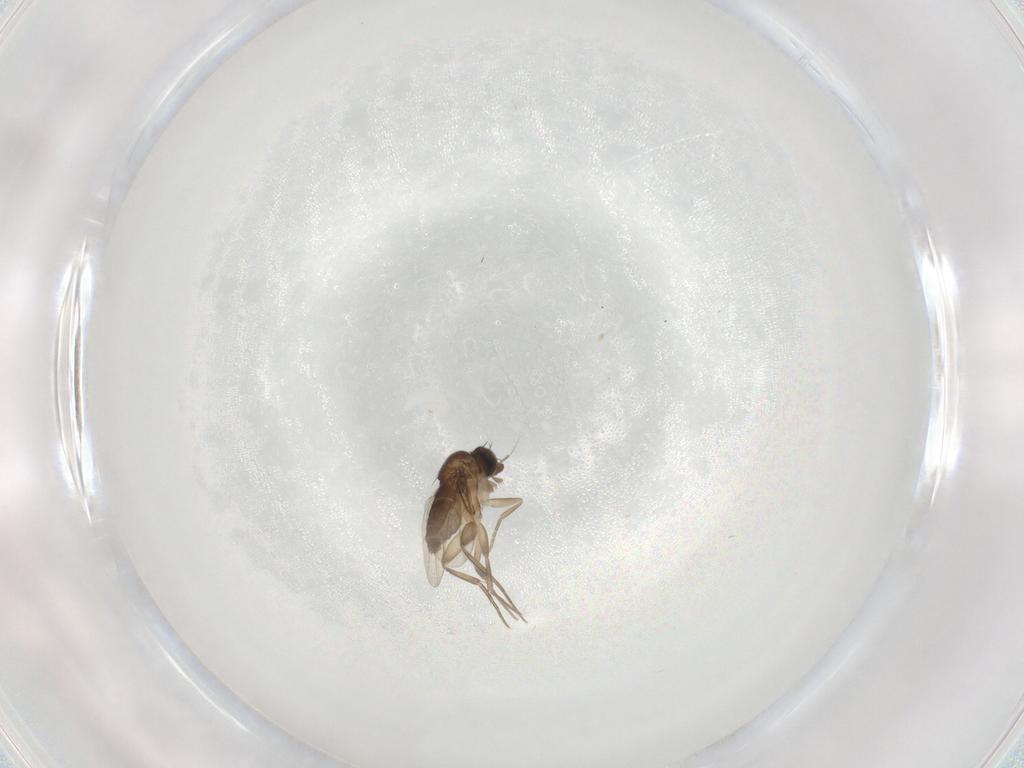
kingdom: Animalia
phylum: Arthropoda
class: Insecta
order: Diptera
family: Phoridae
